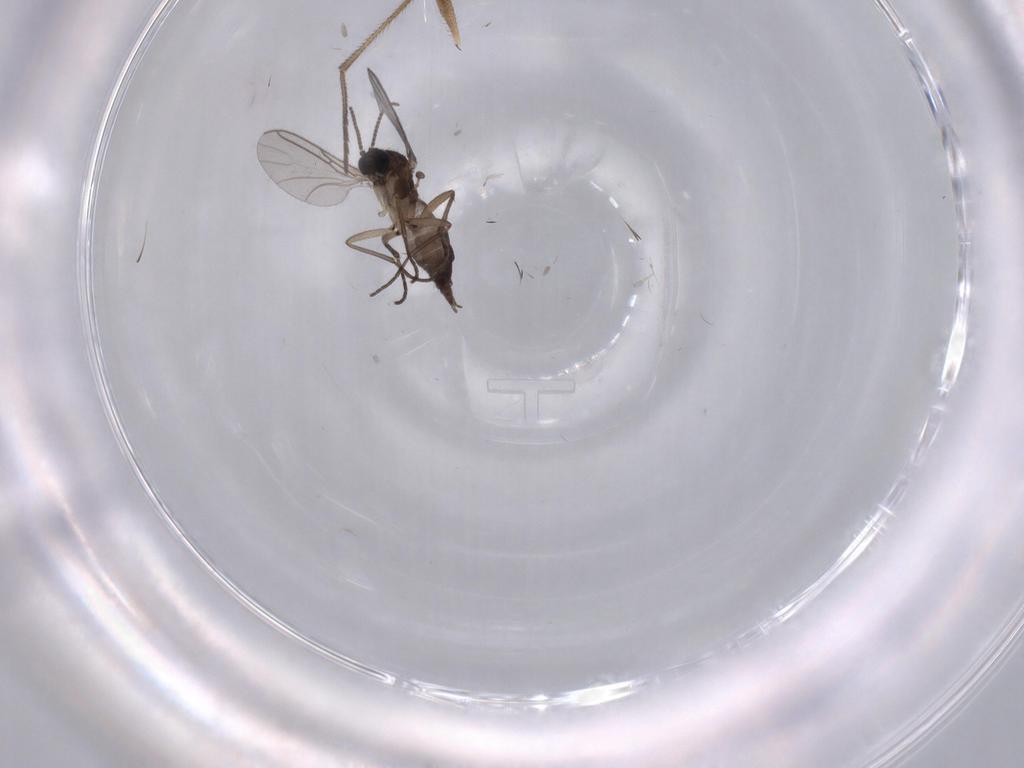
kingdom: Animalia
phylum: Arthropoda
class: Insecta
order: Diptera
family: Sciaridae
